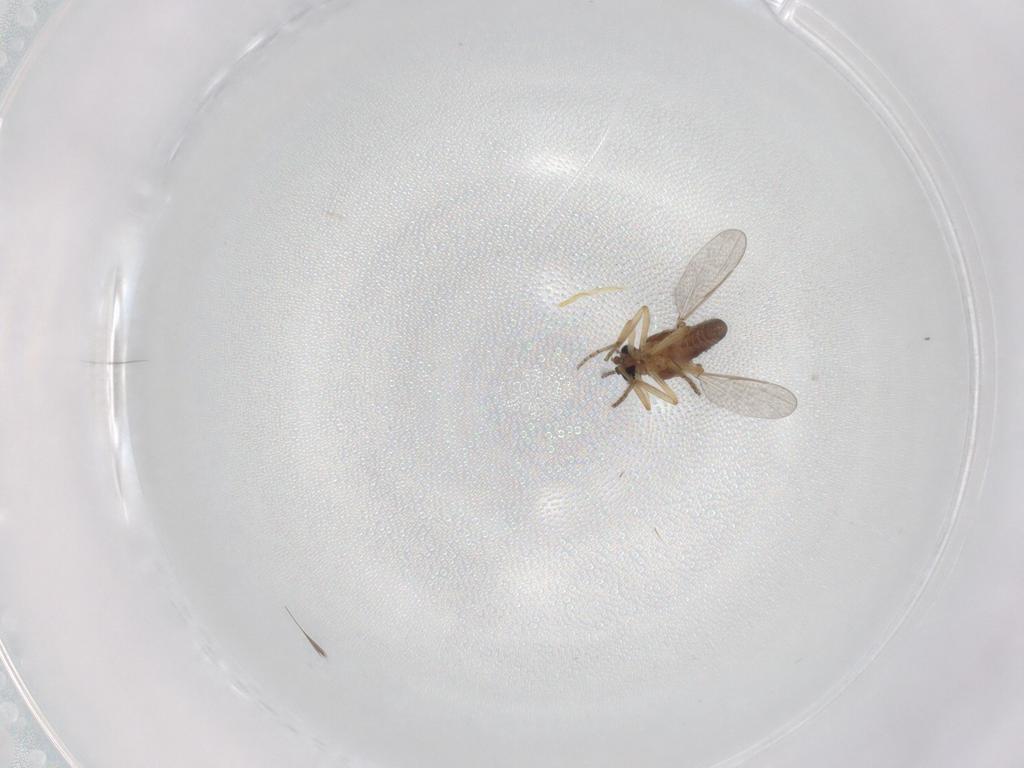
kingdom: Animalia
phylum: Arthropoda
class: Insecta
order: Diptera
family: Ceratopogonidae
